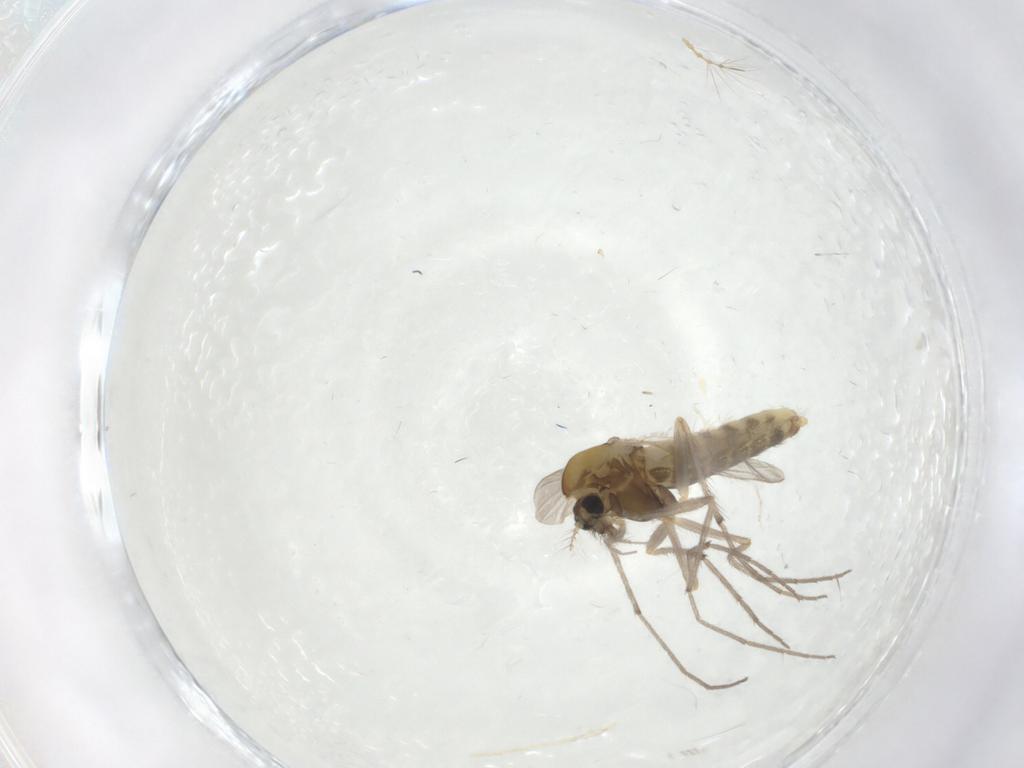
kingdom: Animalia
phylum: Arthropoda
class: Insecta
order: Diptera
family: Chironomidae
